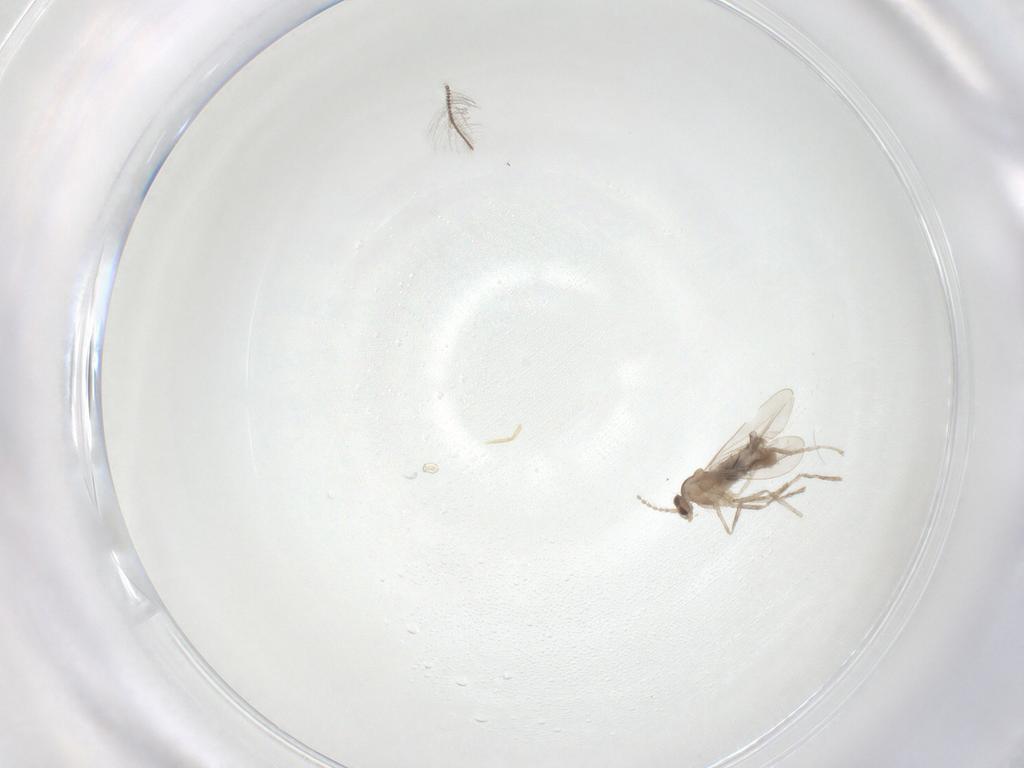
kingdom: Animalia
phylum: Arthropoda
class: Insecta
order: Diptera
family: Cecidomyiidae
